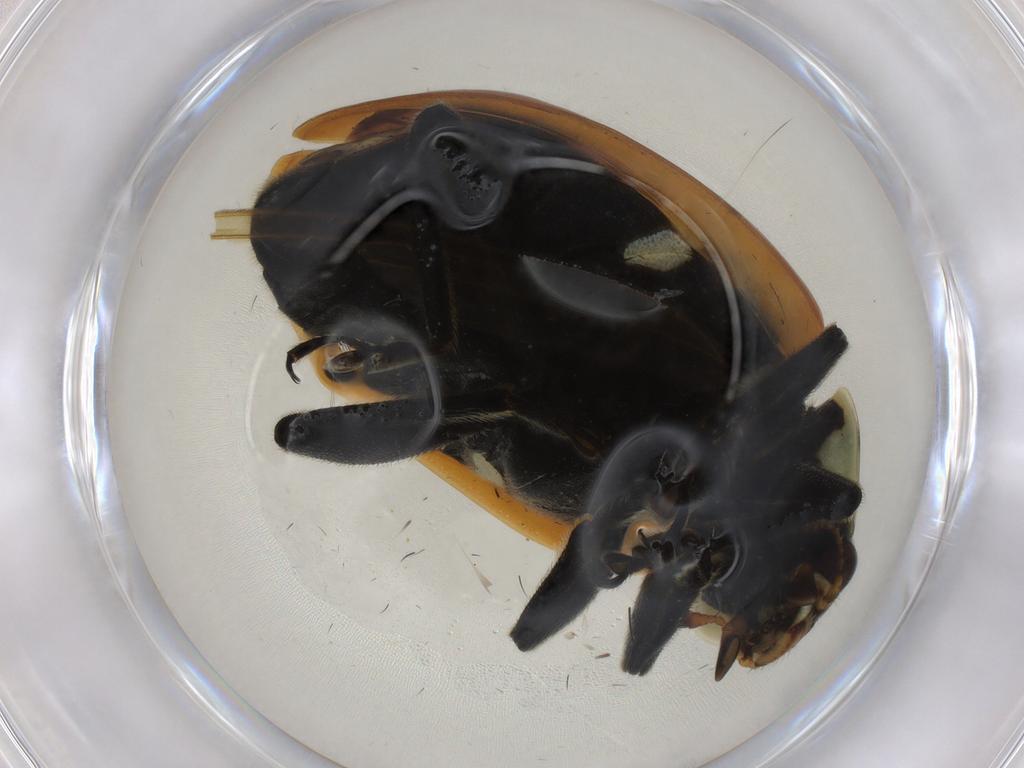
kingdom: Animalia
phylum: Arthropoda
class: Insecta
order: Coleoptera
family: Coccinellidae
